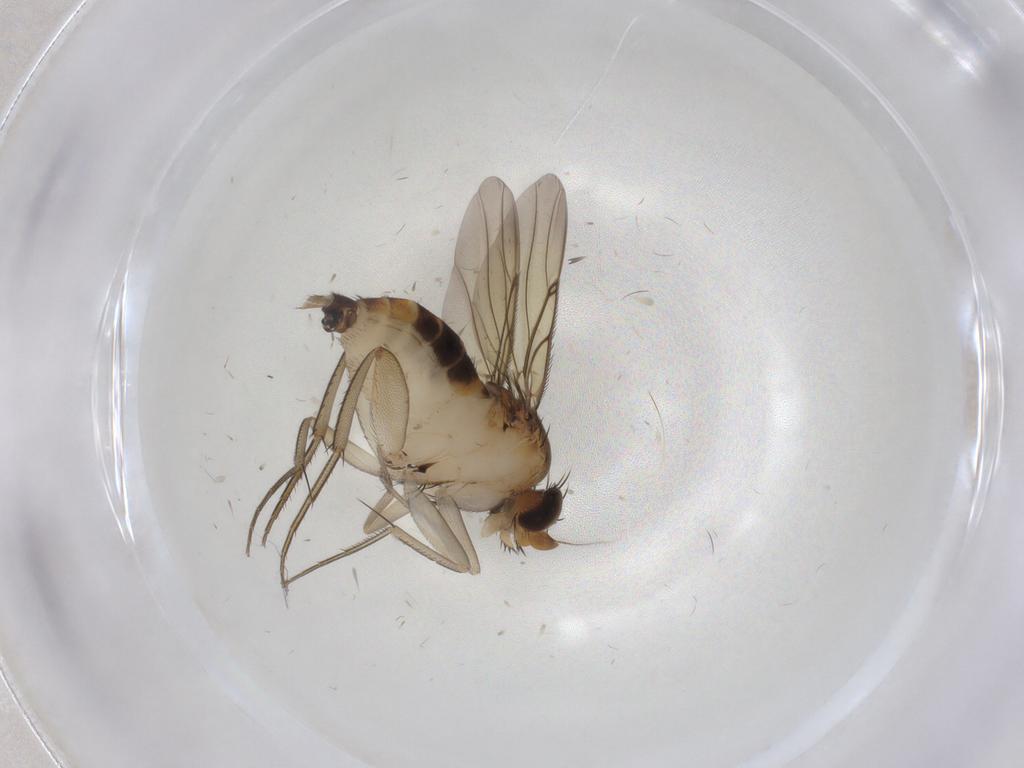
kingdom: Animalia
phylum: Arthropoda
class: Insecta
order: Diptera
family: Phoridae
